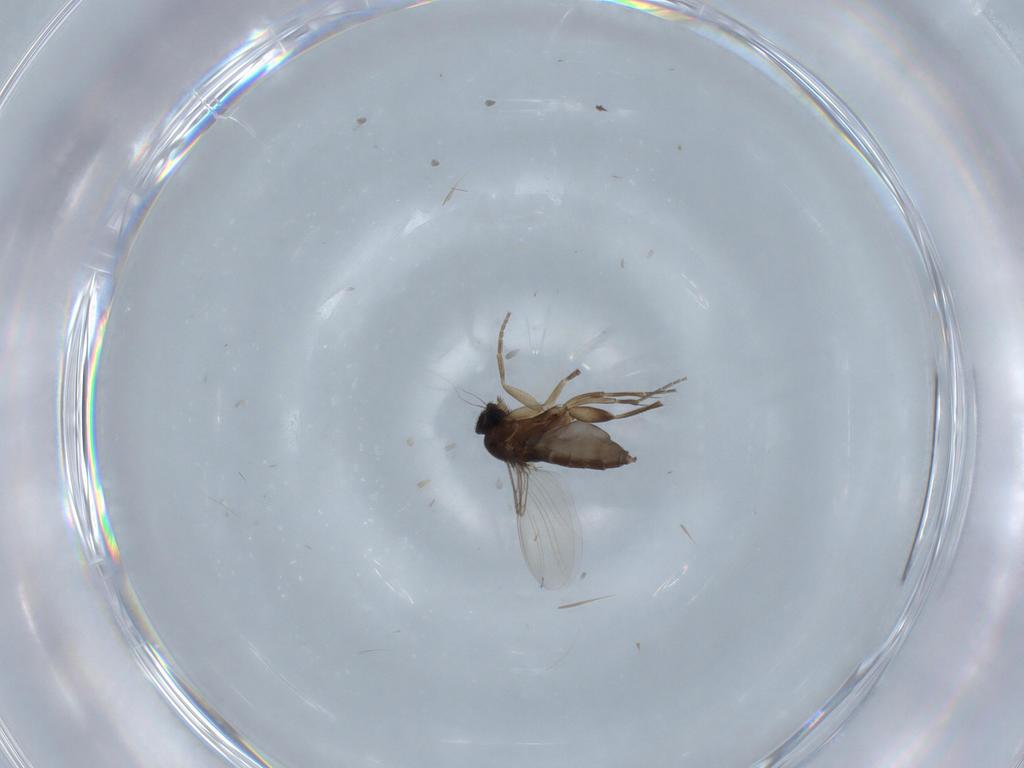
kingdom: Animalia
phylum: Arthropoda
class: Insecta
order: Diptera
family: Phoridae
